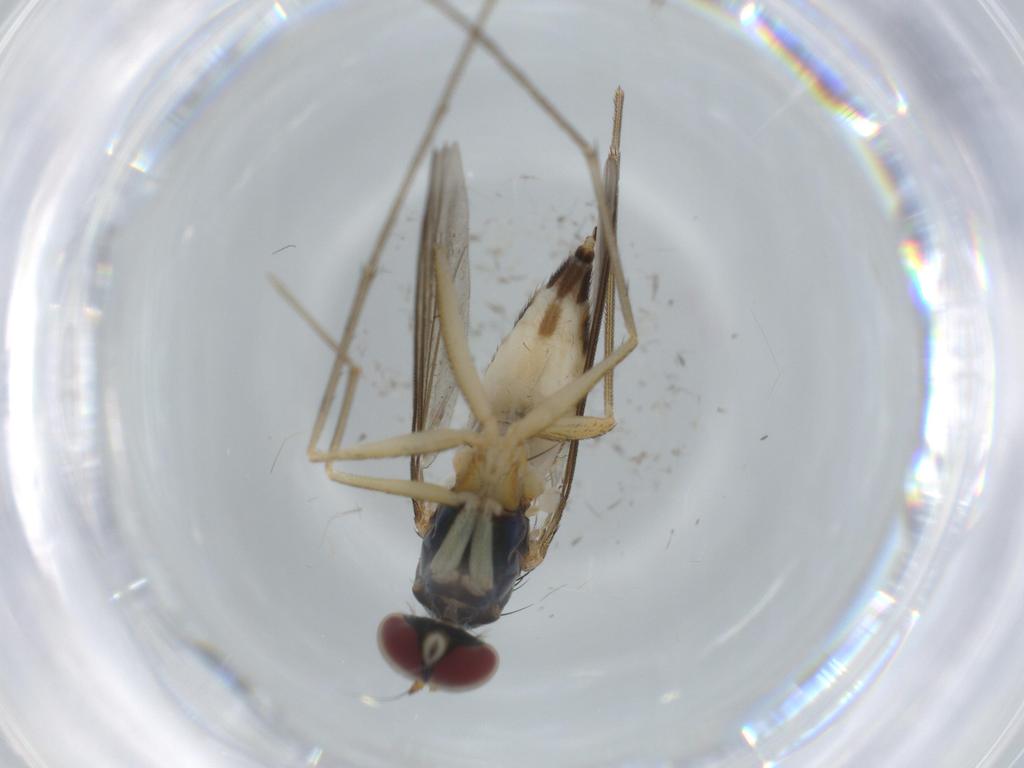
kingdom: Animalia
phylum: Arthropoda
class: Insecta
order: Diptera
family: Dolichopodidae
